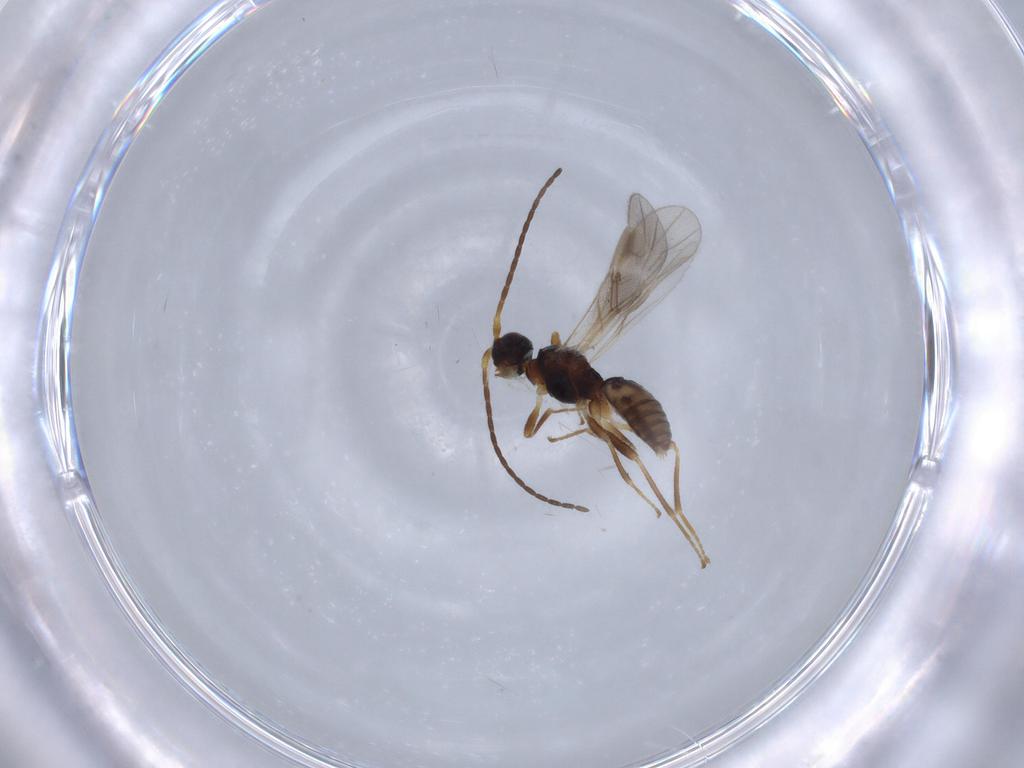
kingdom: Animalia
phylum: Arthropoda
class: Insecta
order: Hymenoptera
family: Braconidae
